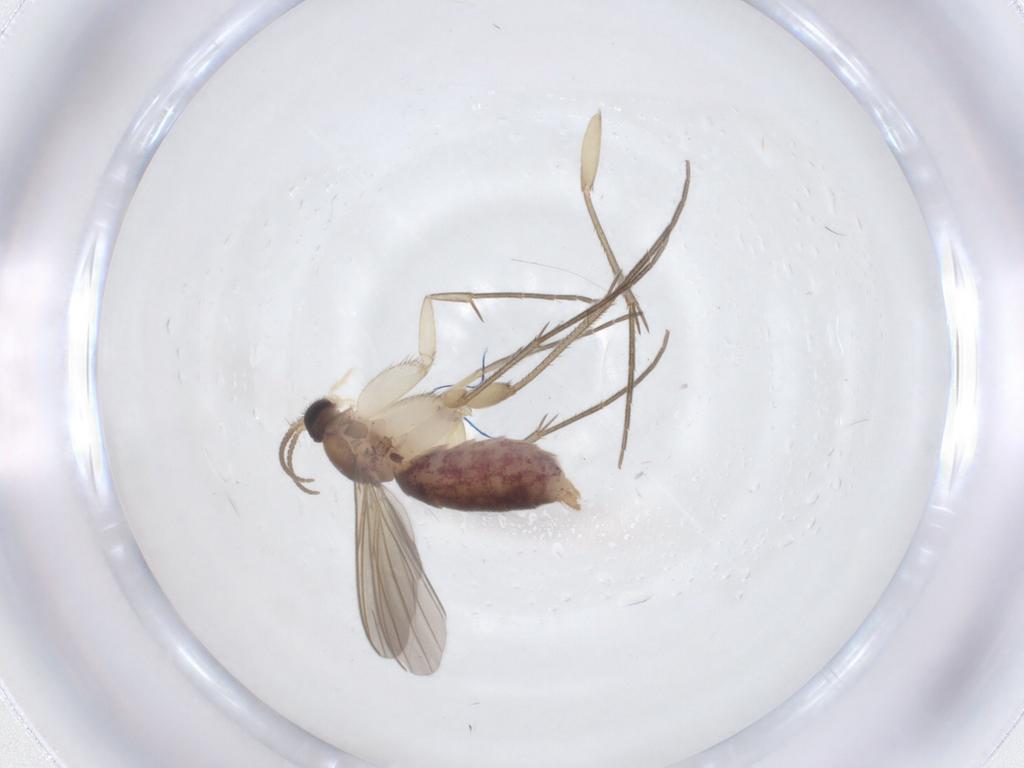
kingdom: Animalia
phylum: Arthropoda
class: Insecta
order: Diptera
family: Mycetophilidae
